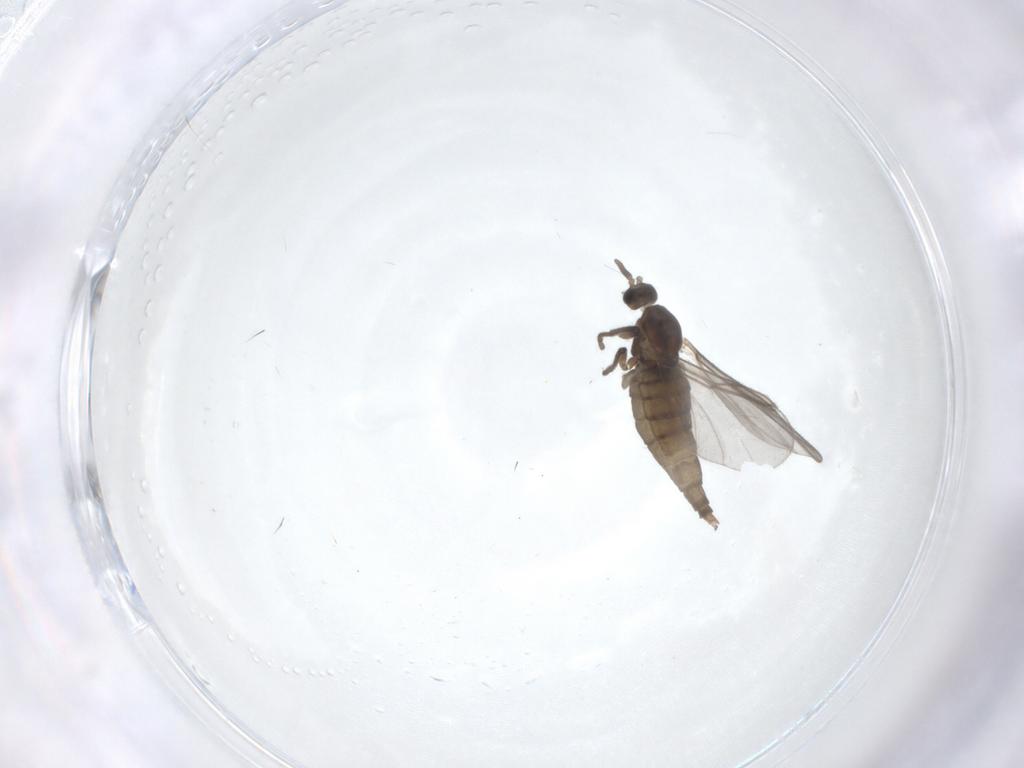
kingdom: Animalia
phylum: Arthropoda
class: Insecta
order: Diptera
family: Cecidomyiidae
